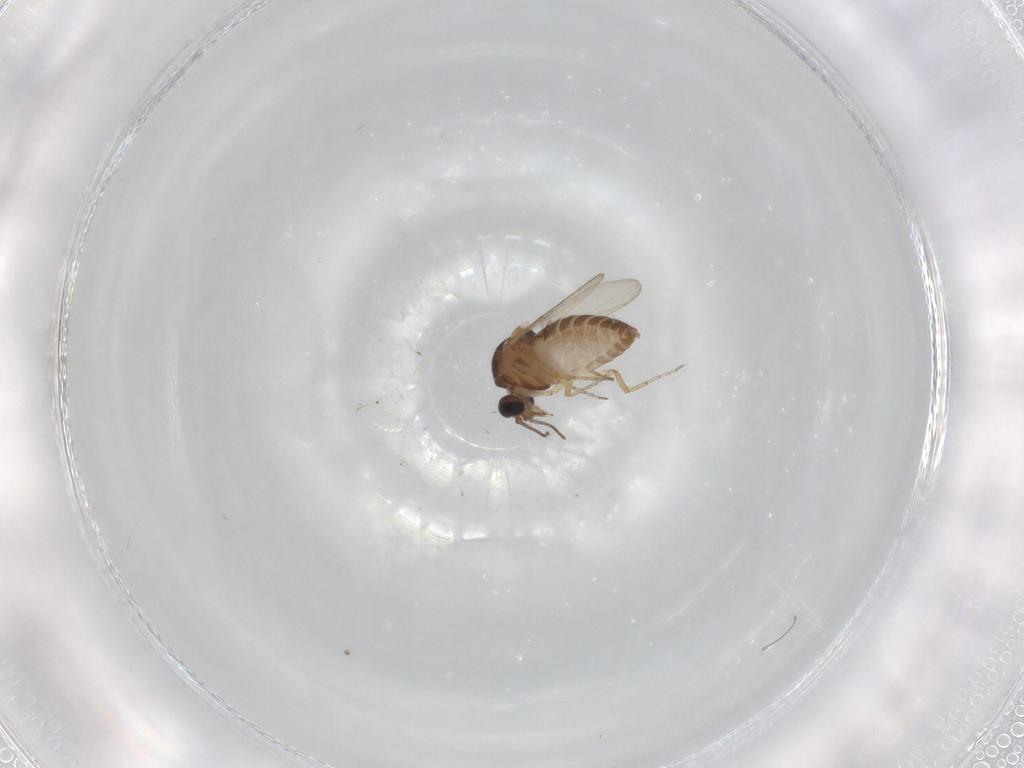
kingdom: Animalia
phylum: Arthropoda
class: Insecta
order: Diptera
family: Ceratopogonidae
